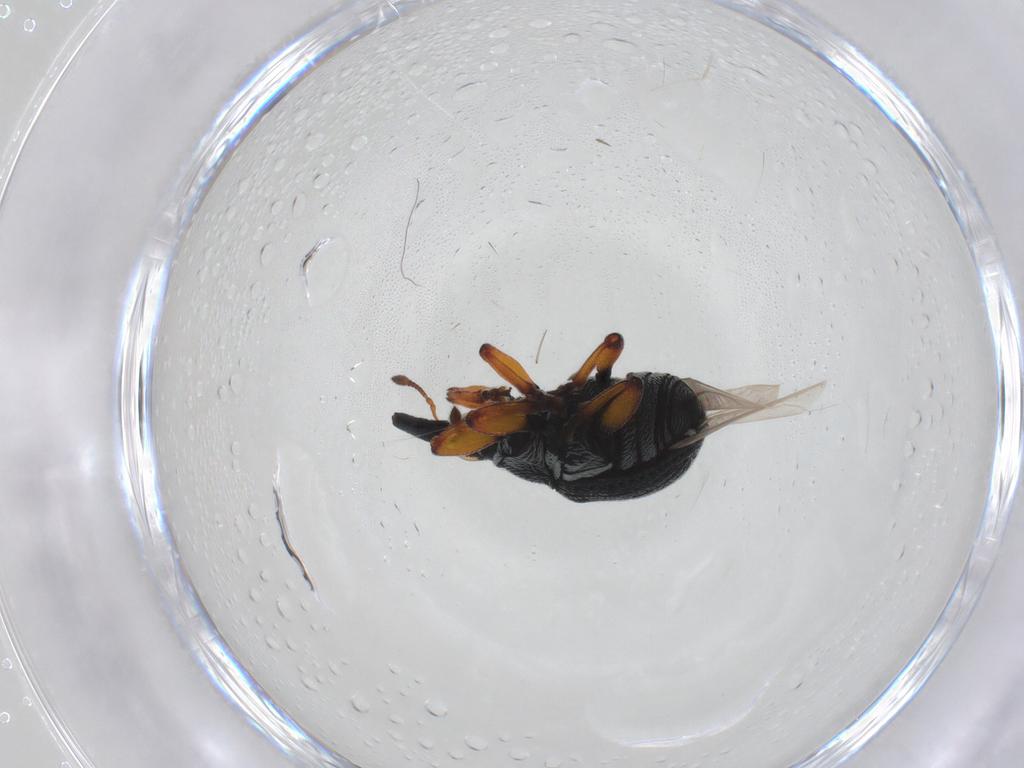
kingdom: Animalia
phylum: Arthropoda
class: Insecta
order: Coleoptera
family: Brentidae
